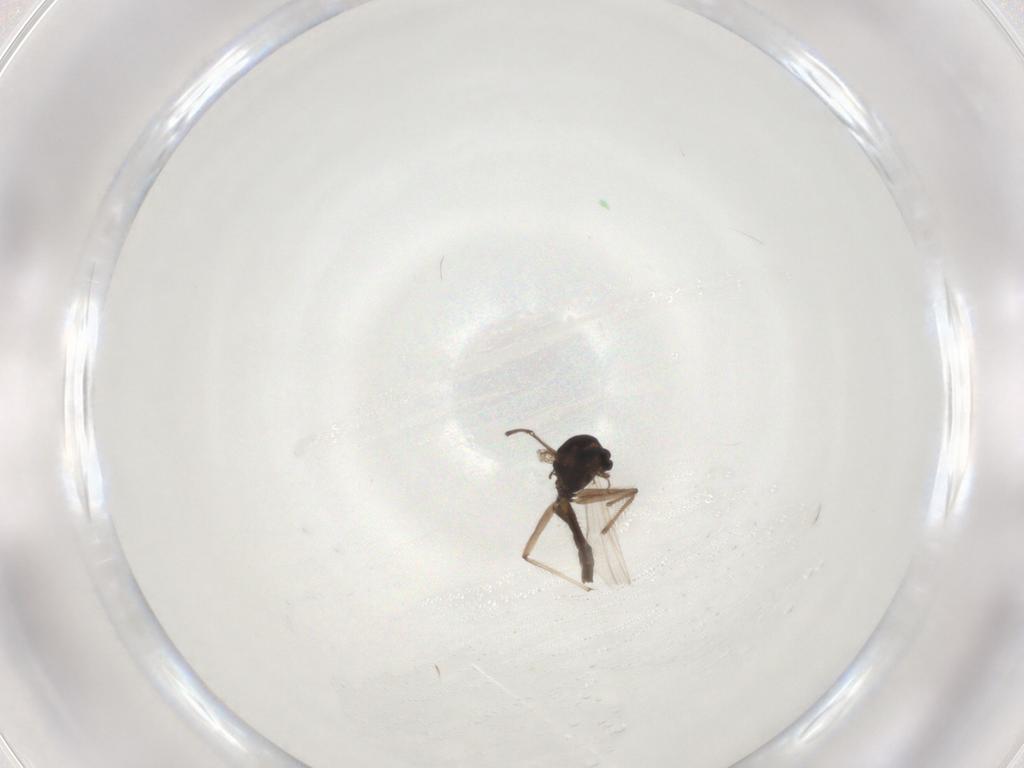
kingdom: Animalia
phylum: Arthropoda
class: Insecta
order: Diptera
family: Chironomidae
